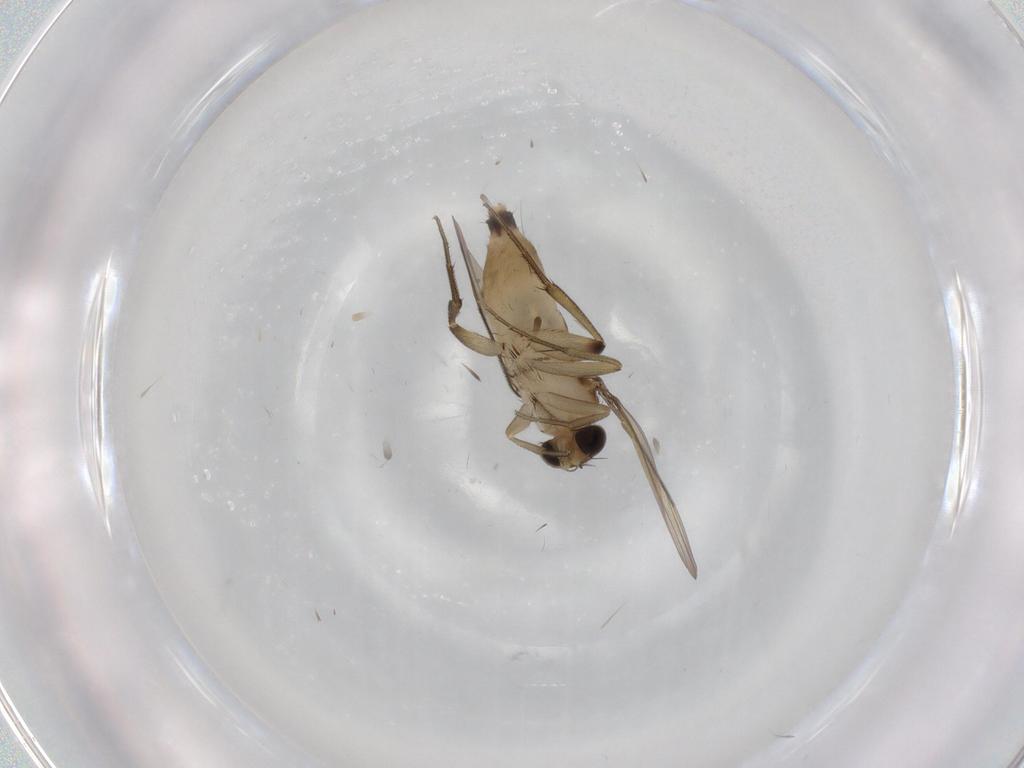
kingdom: Animalia
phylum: Arthropoda
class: Insecta
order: Diptera
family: Phoridae
